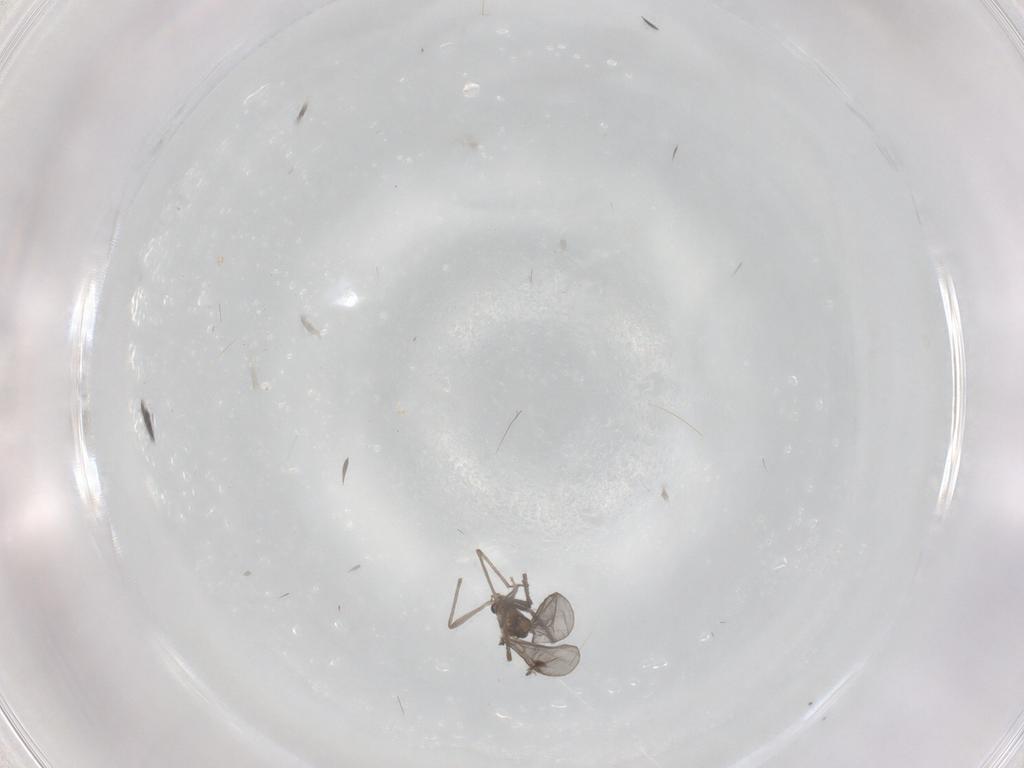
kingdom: Animalia
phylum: Arthropoda
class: Insecta
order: Diptera
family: Chironomidae
